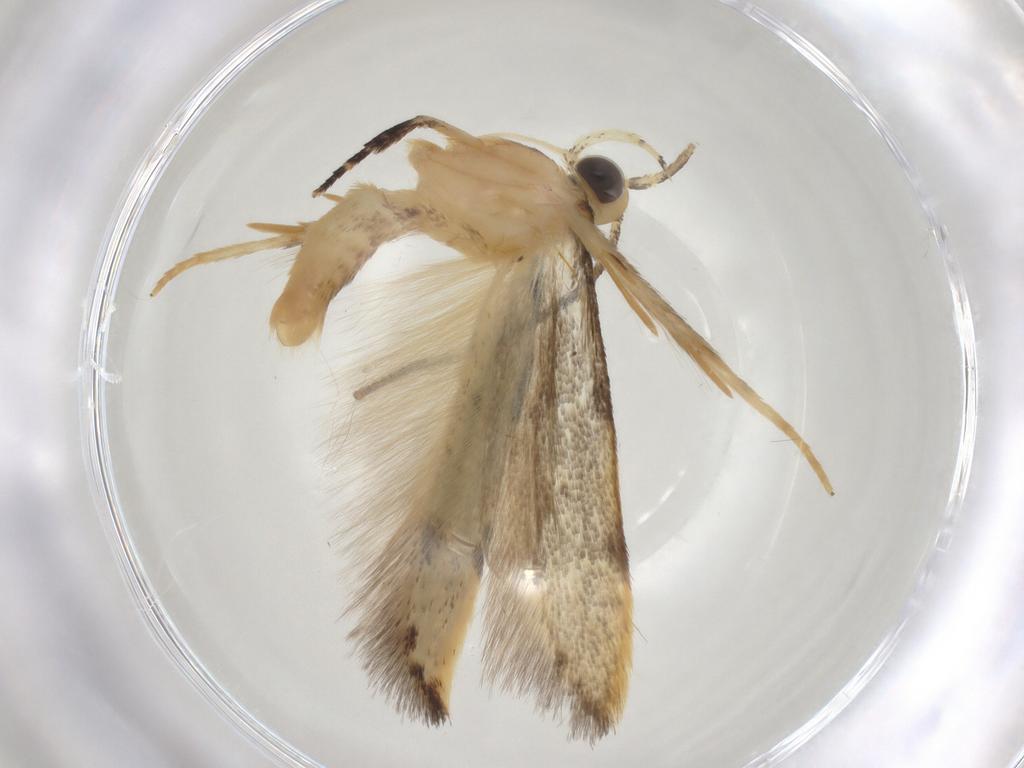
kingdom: Animalia
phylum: Arthropoda
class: Insecta
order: Lepidoptera
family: Autostichidae
